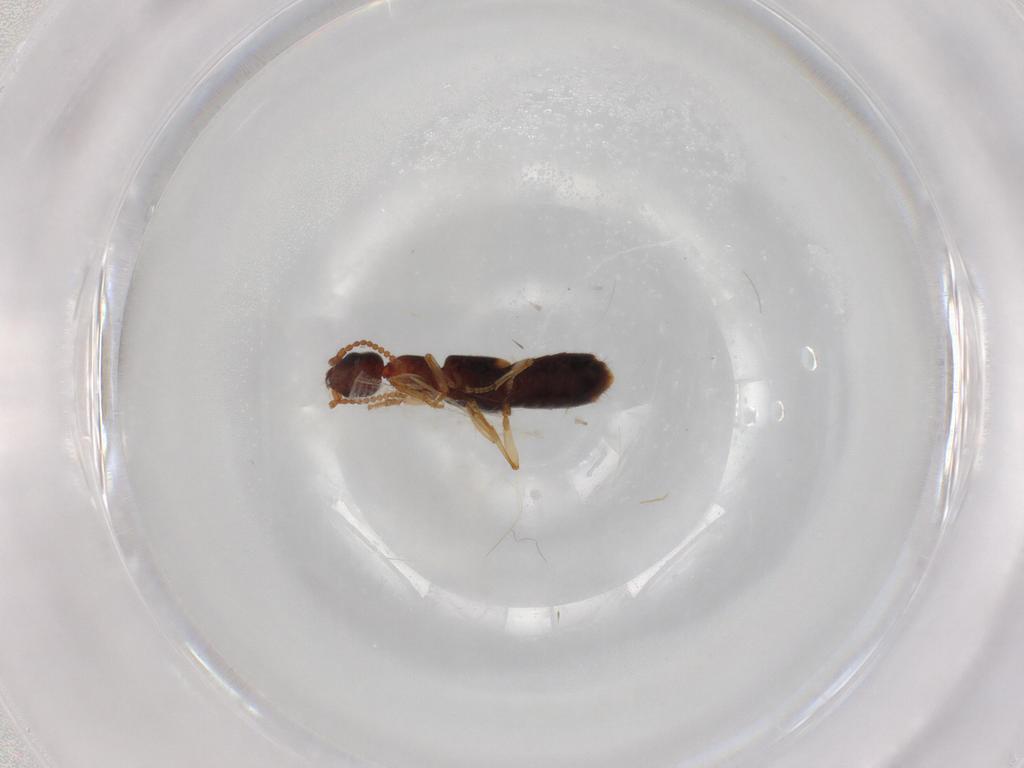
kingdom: Animalia
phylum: Arthropoda
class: Insecta
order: Coleoptera
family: Staphylinidae
